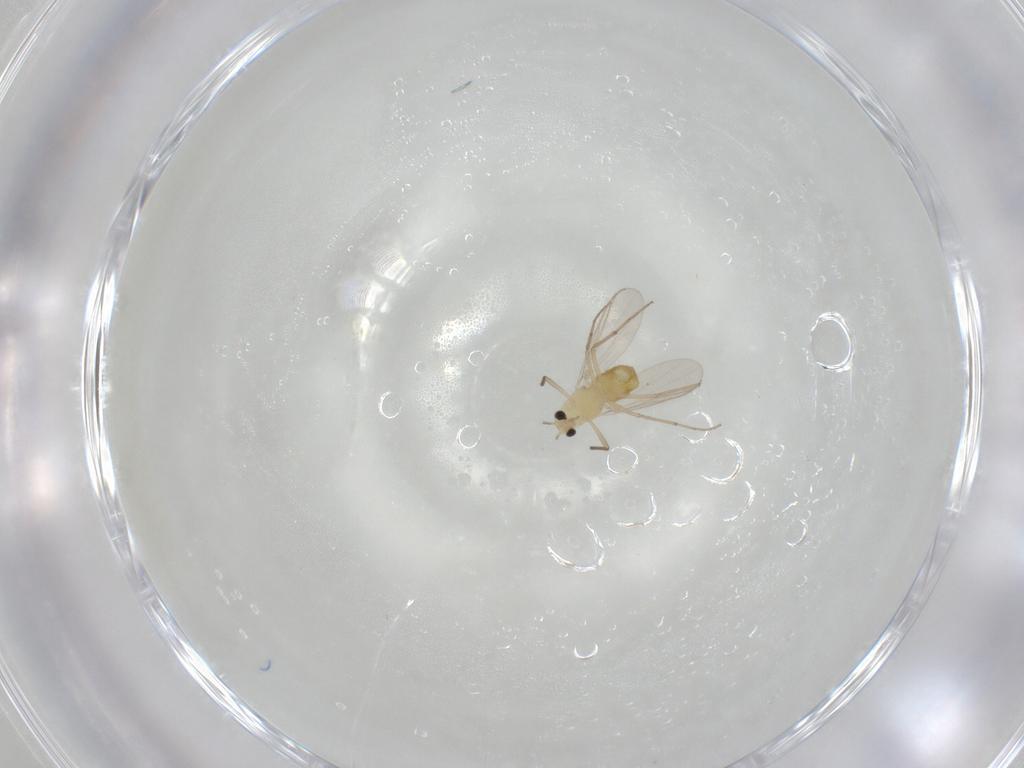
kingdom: Animalia
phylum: Arthropoda
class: Insecta
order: Diptera
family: Chironomidae
